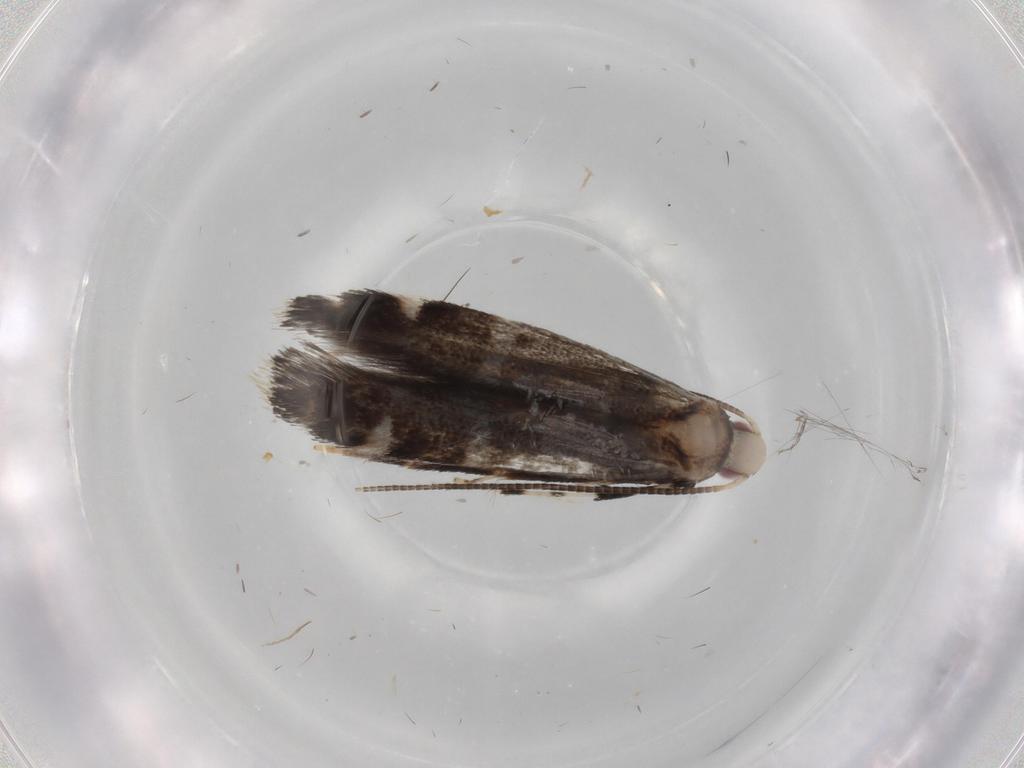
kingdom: Animalia
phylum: Arthropoda
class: Insecta
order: Lepidoptera
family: Gracillariidae
